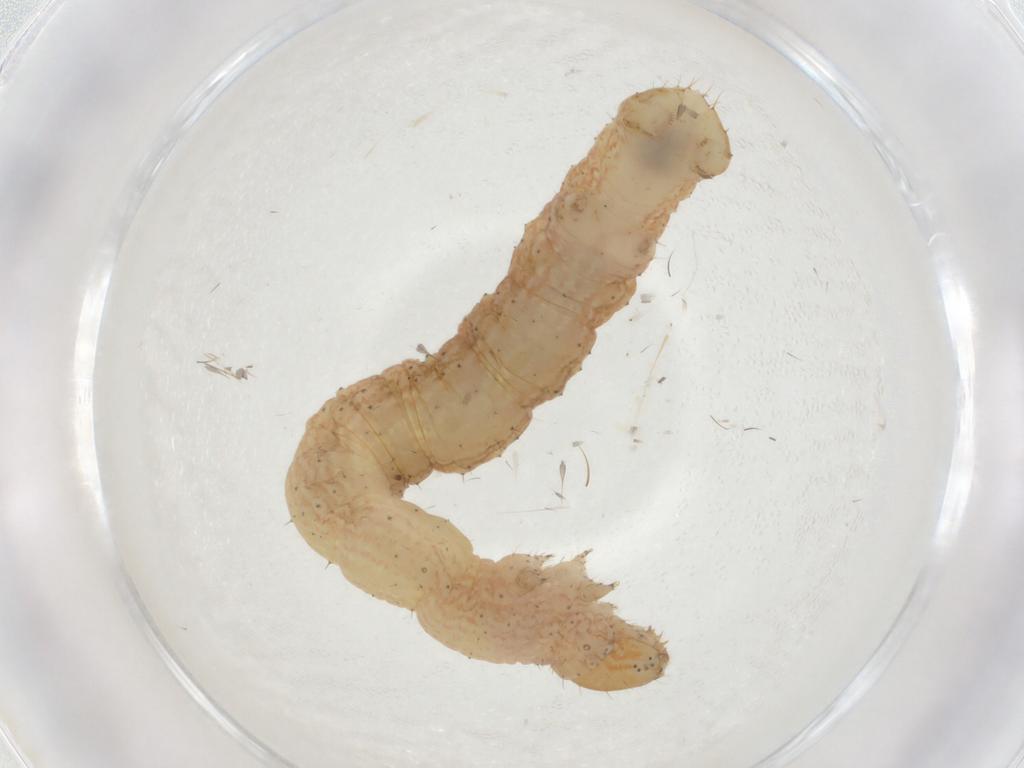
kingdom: Animalia
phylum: Arthropoda
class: Insecta
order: Lepidoptera
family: Geometridae
